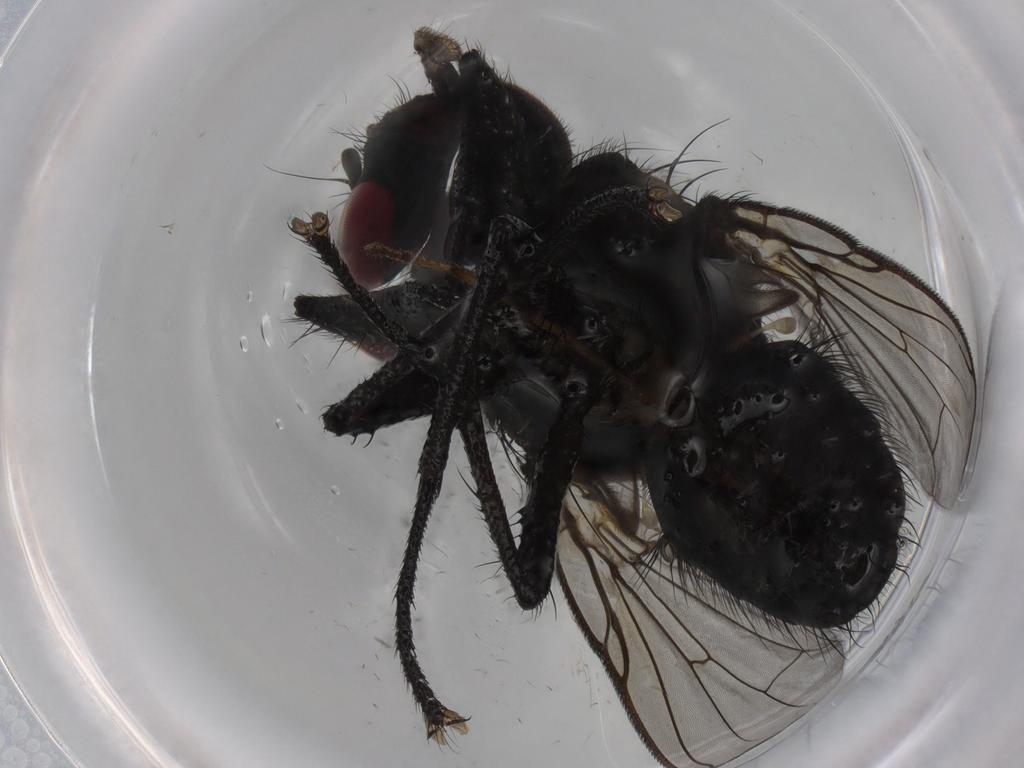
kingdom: Animalia
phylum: Arthropoda
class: Insecta
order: Diptera
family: Muscidae
